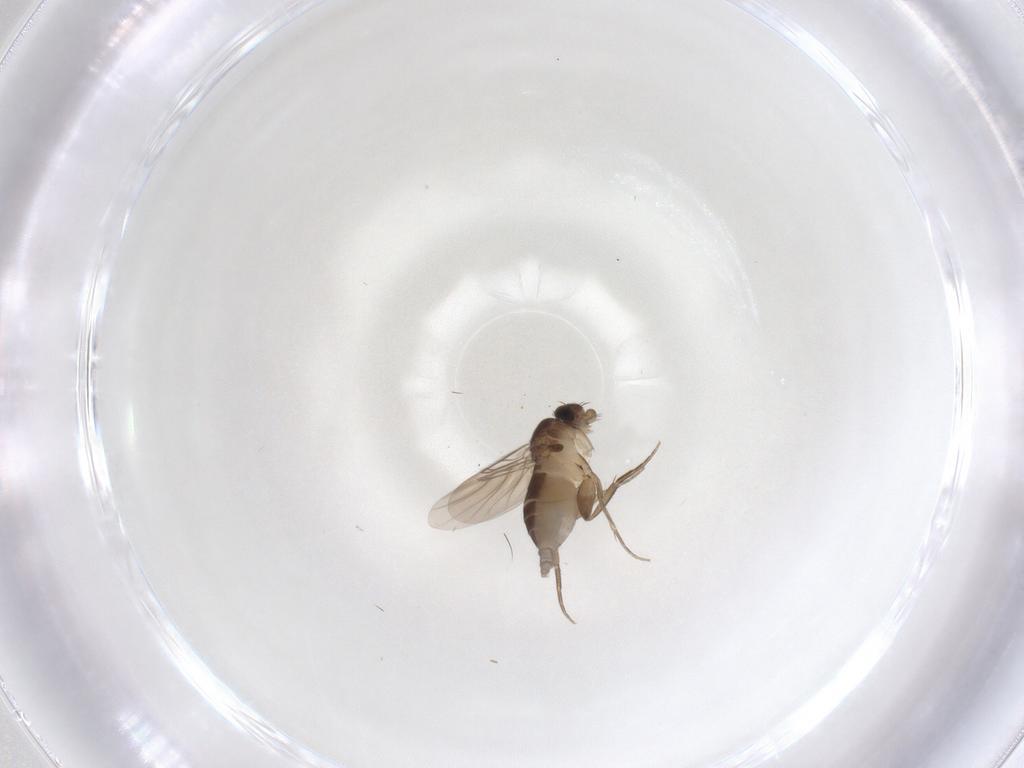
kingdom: Animalia
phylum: Arthropoda
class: Insecta
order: Diptera
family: Phoridae
